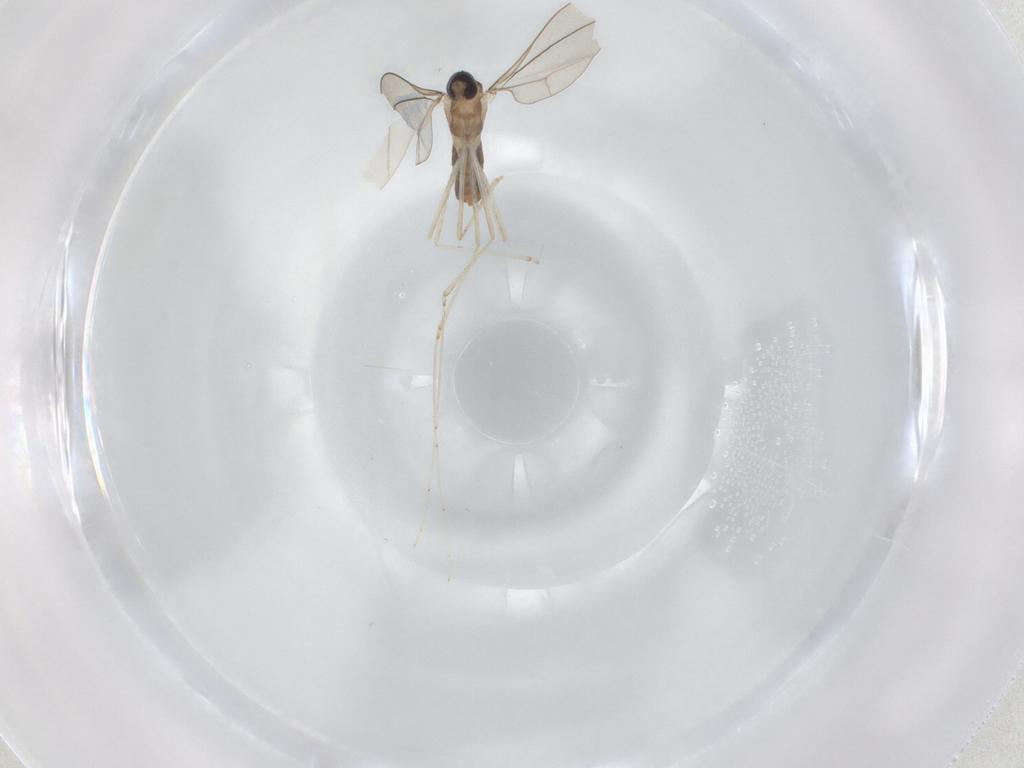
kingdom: Animalia
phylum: Arthropoda
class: Insecta
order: Diptera
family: Cecidomyiidae
